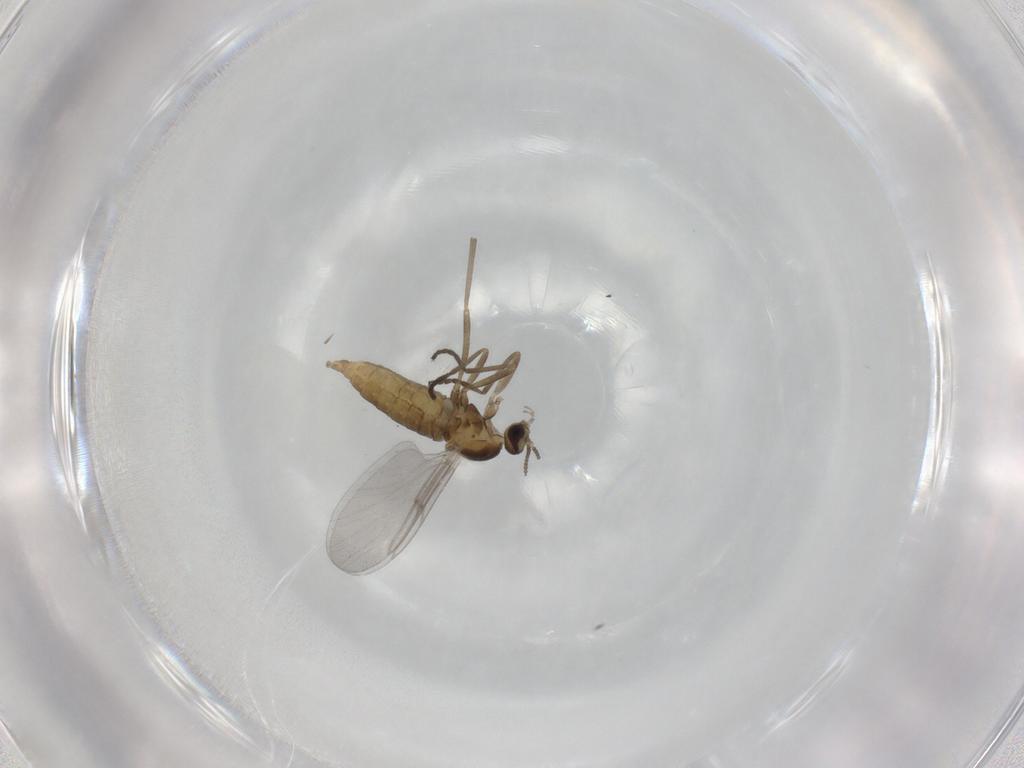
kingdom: Animalia
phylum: Arthropoda
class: Insecta
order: Diptera
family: Cecidomyiidae
